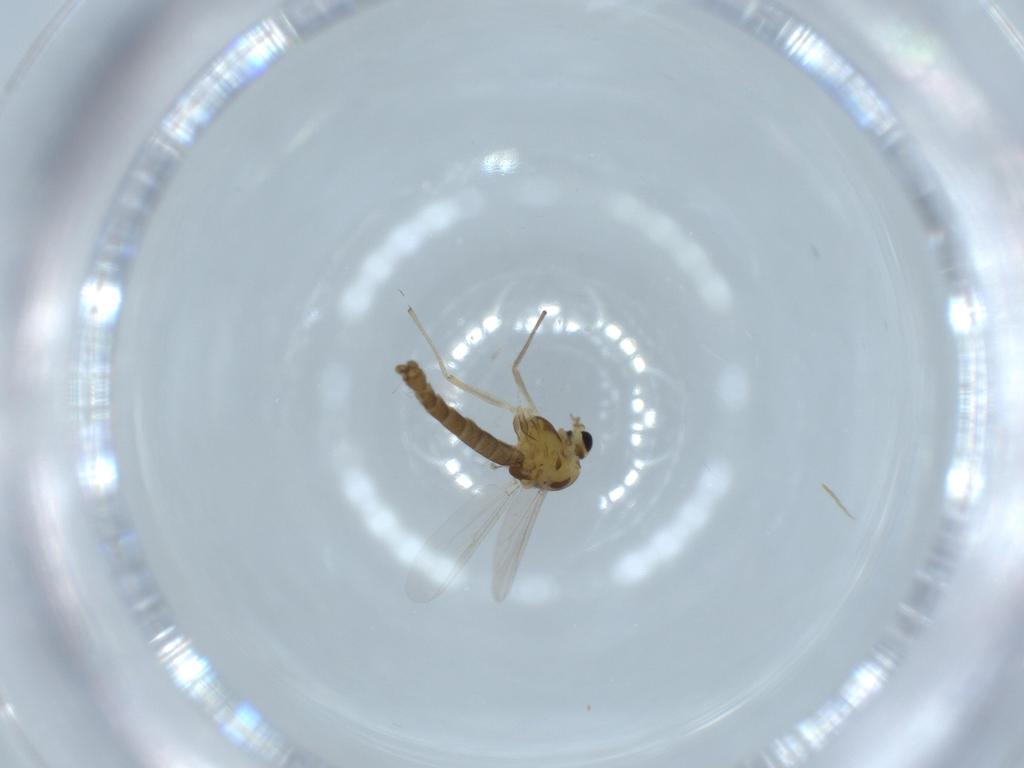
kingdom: Animalia
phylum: Arthropoda
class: Insecta
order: Diptera
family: Chironomidae
